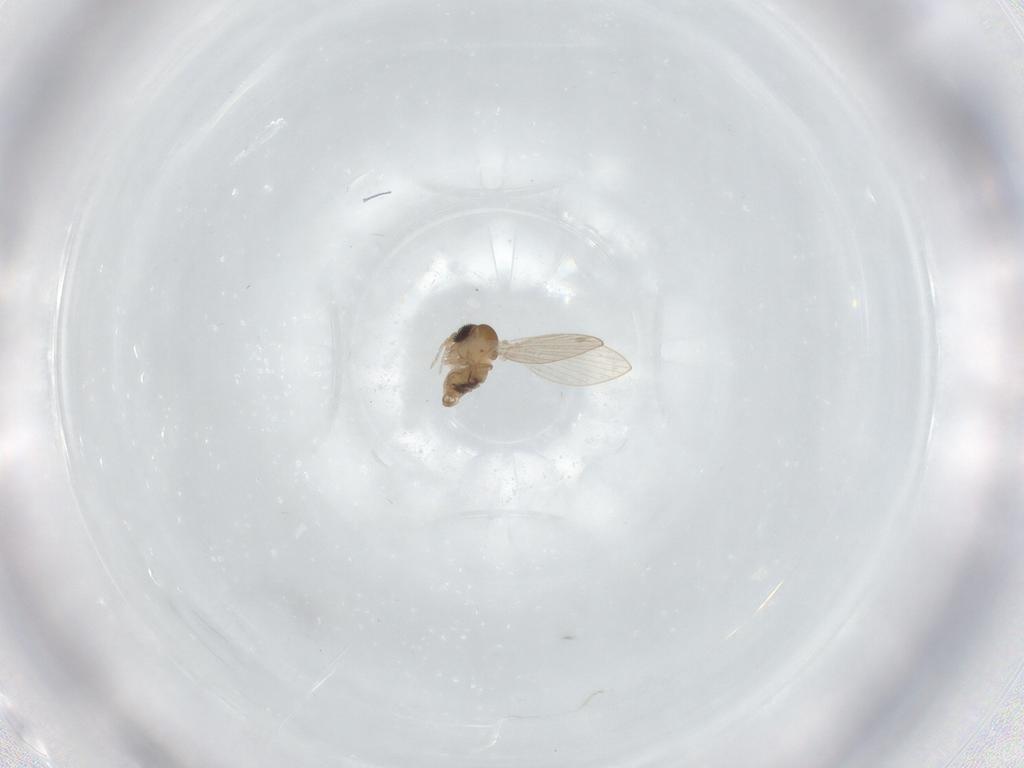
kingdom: Animalia
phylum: Arthropoda
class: Insecta
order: Diptera
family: Psychodidae
